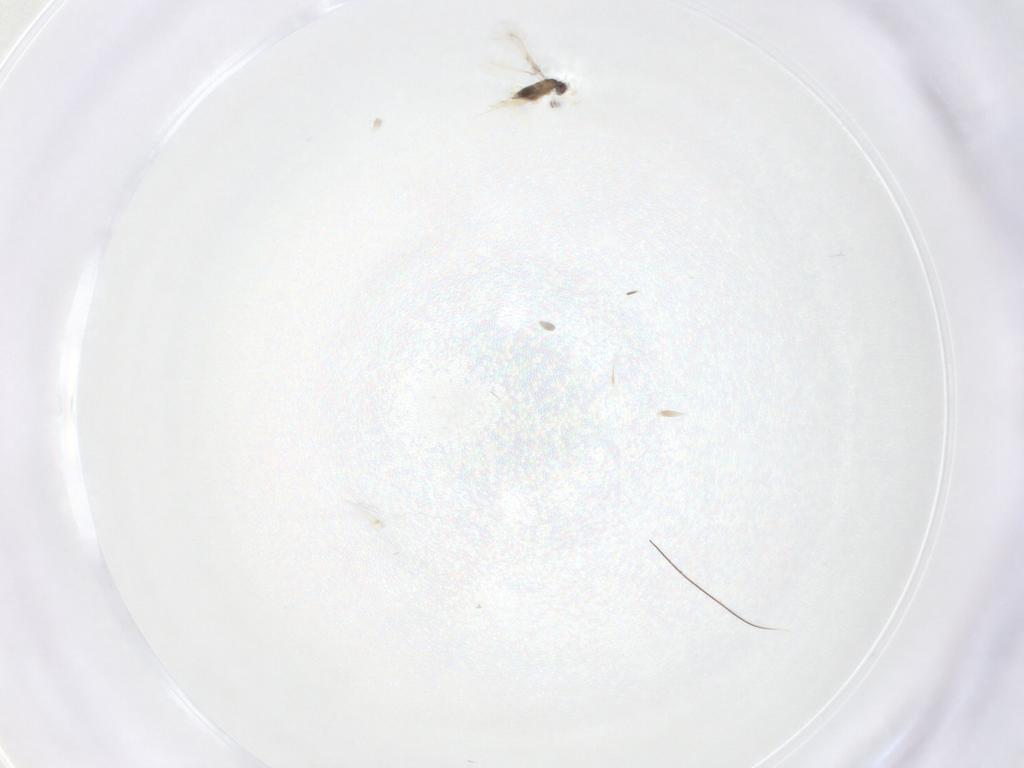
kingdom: Animalia
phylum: Arthropoda
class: Insecta
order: Hymenoptera
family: Mymaridae
